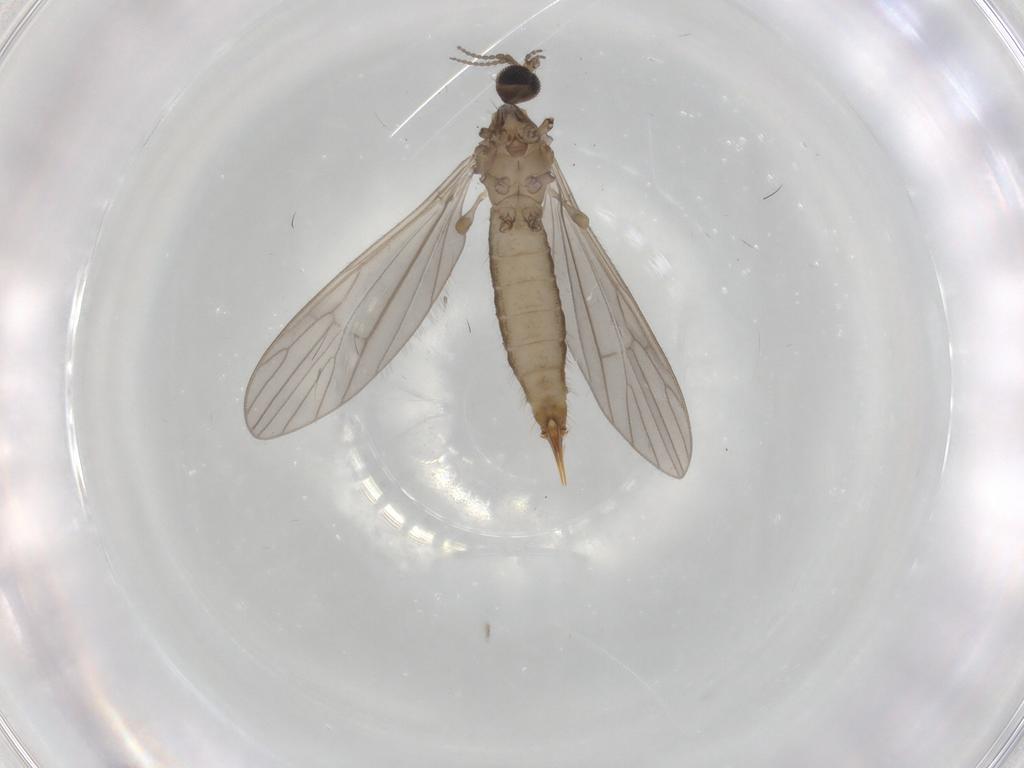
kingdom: Animalia
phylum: Arthropoda
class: Insecta
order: Diptera
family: Limoniidae
